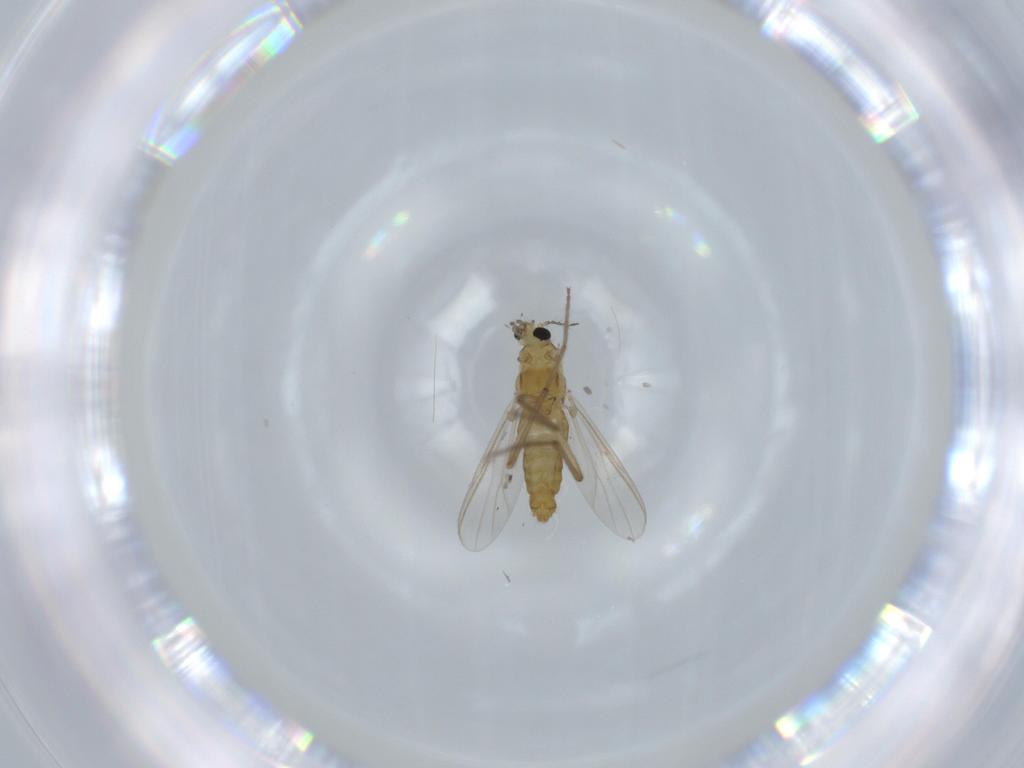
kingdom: Animalia
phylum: Arthropoda
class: Insecta
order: Diptera
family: Chironomidae
